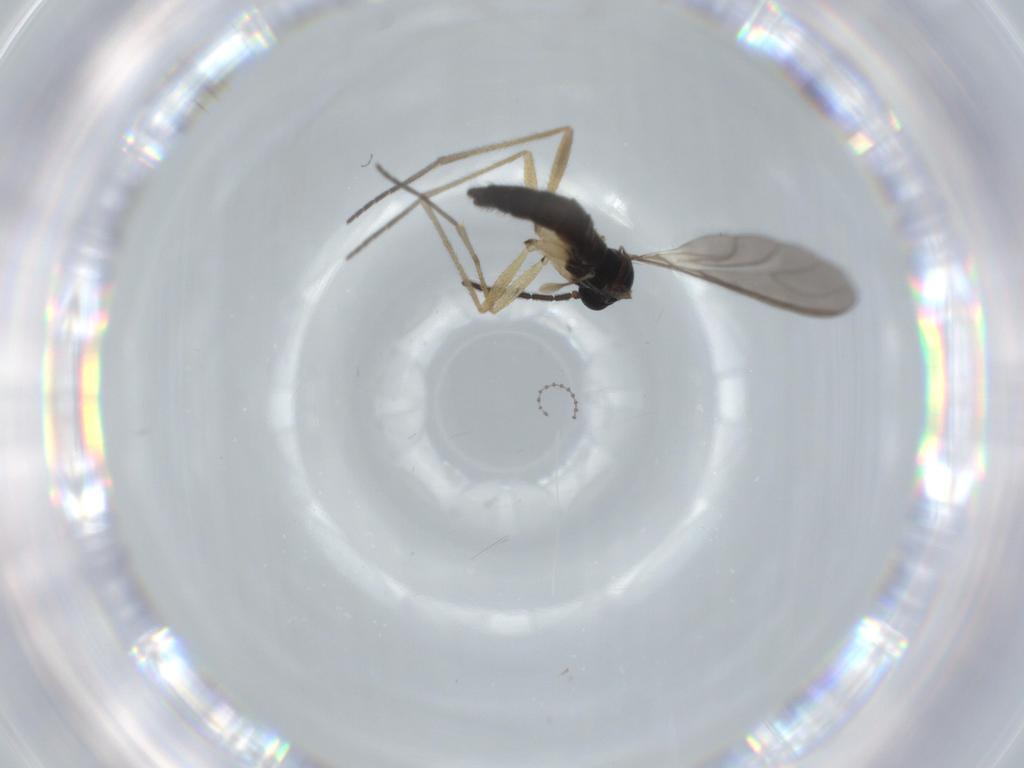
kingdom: Animalia
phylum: Arthropoda
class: Insecta
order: Diptera
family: Sciaridae
